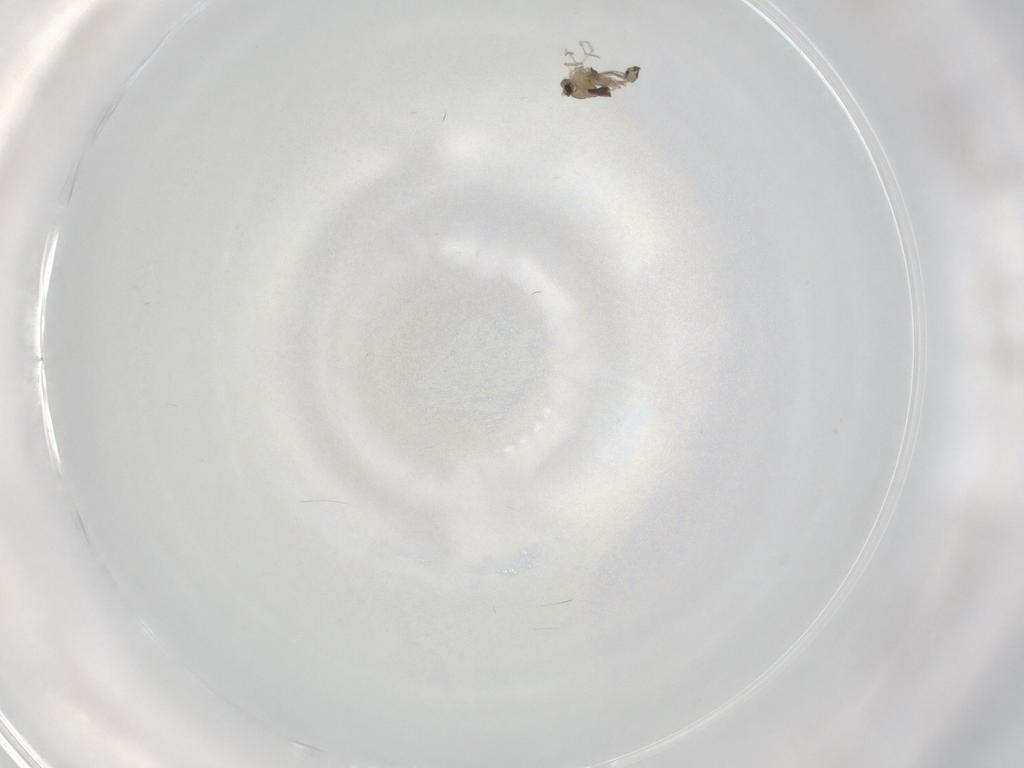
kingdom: Animalia
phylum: Arthropoda
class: Insecta
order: Diptera
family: Cecidomyiidae
